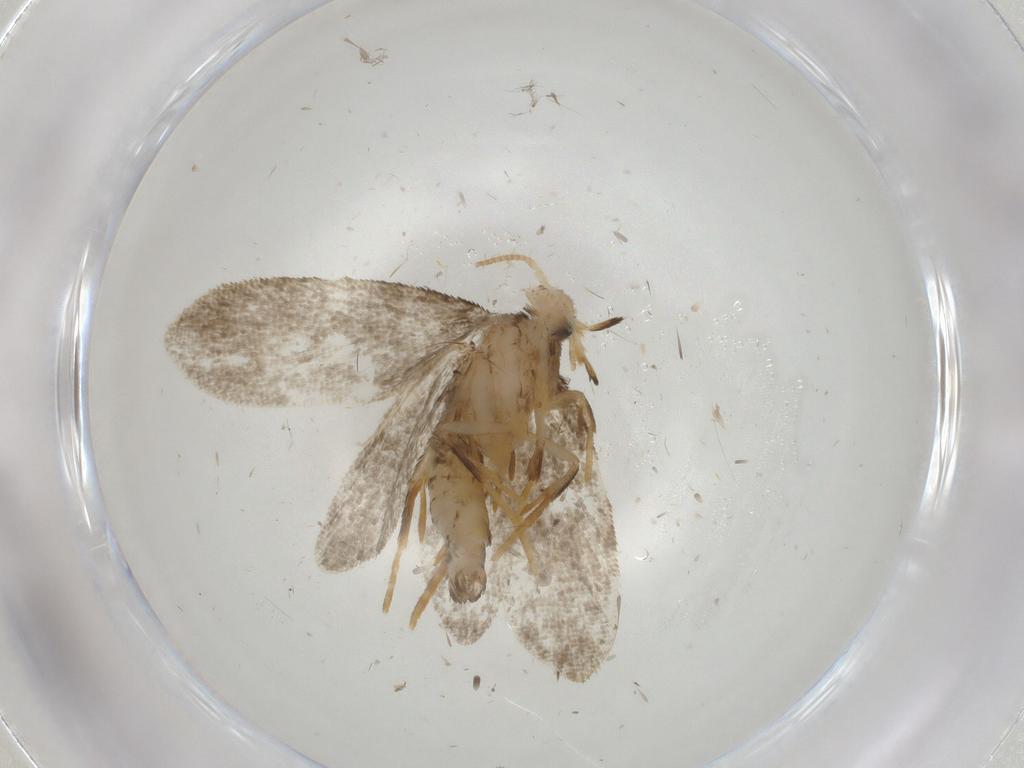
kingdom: Animalia
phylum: Arthropoda
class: Insecta
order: Lepidoptera
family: Psychidae
